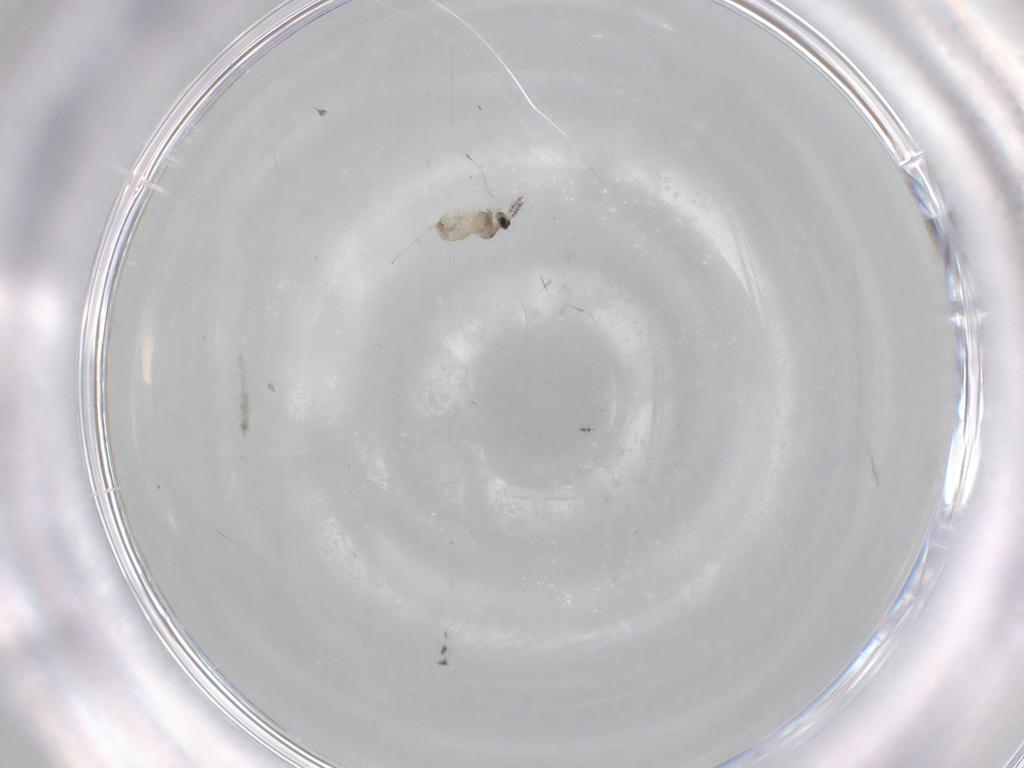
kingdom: Animalia
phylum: Arthropoda
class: Insecta
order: Diptera
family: Cecidomyiidae
